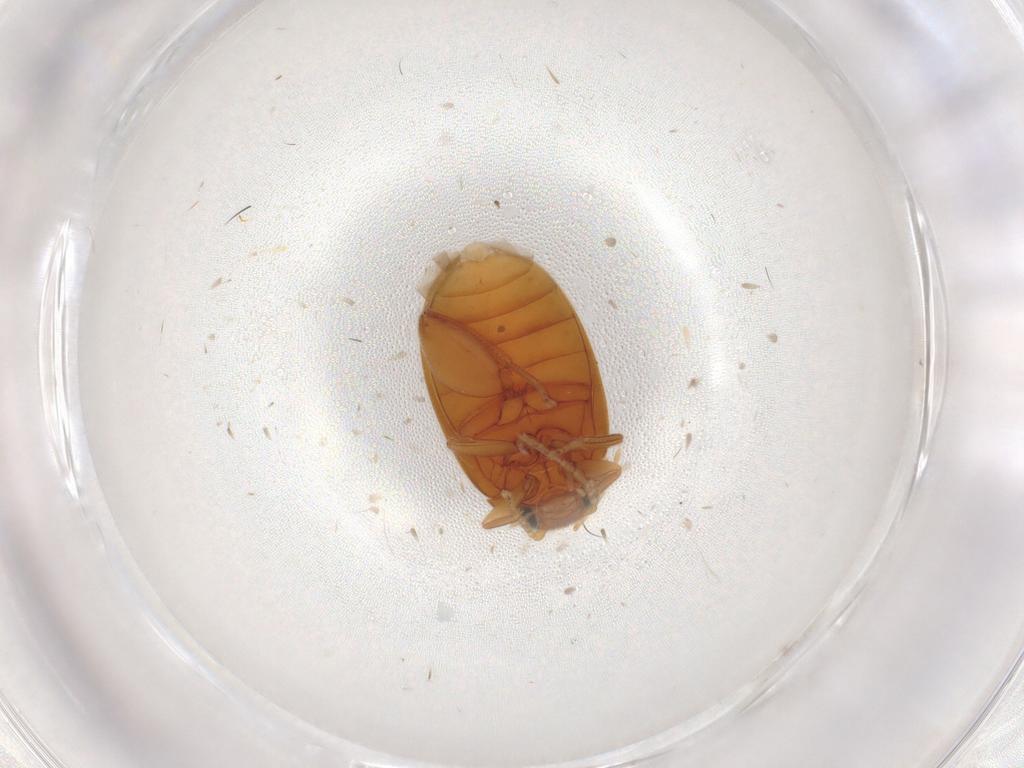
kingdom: Animalia
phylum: Arthropoda
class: Insecta
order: Coleoptera
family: Scirtidae
